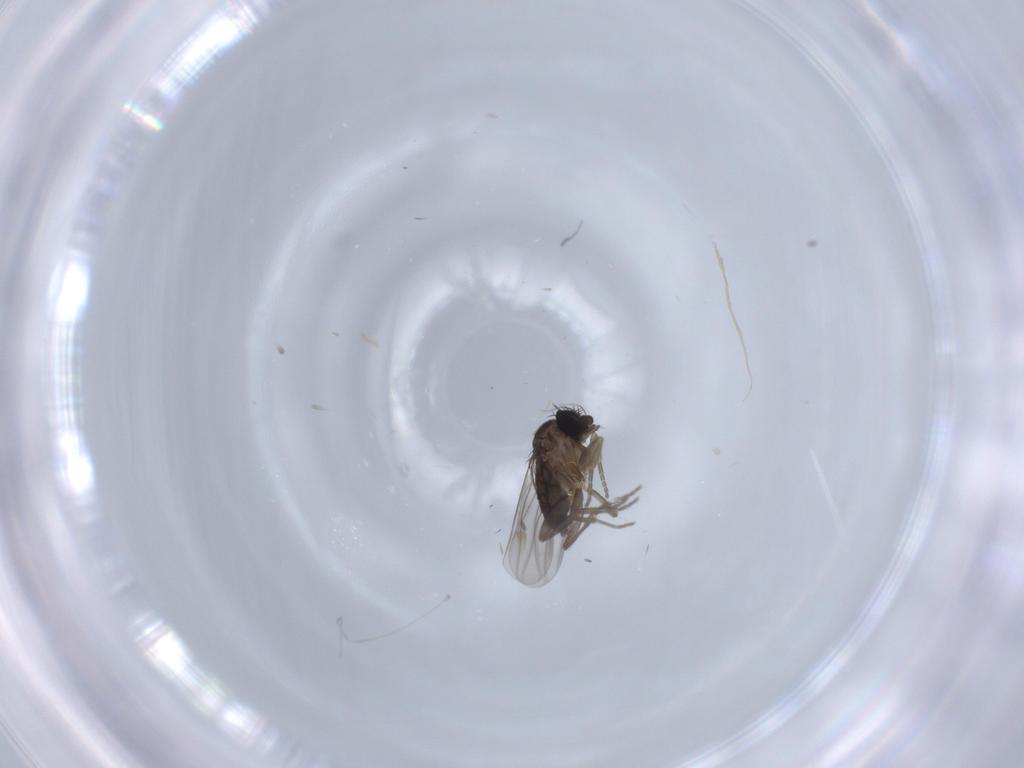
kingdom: Animalia
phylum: Arthropoda
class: Insecta
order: Diptera
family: Phoridae
